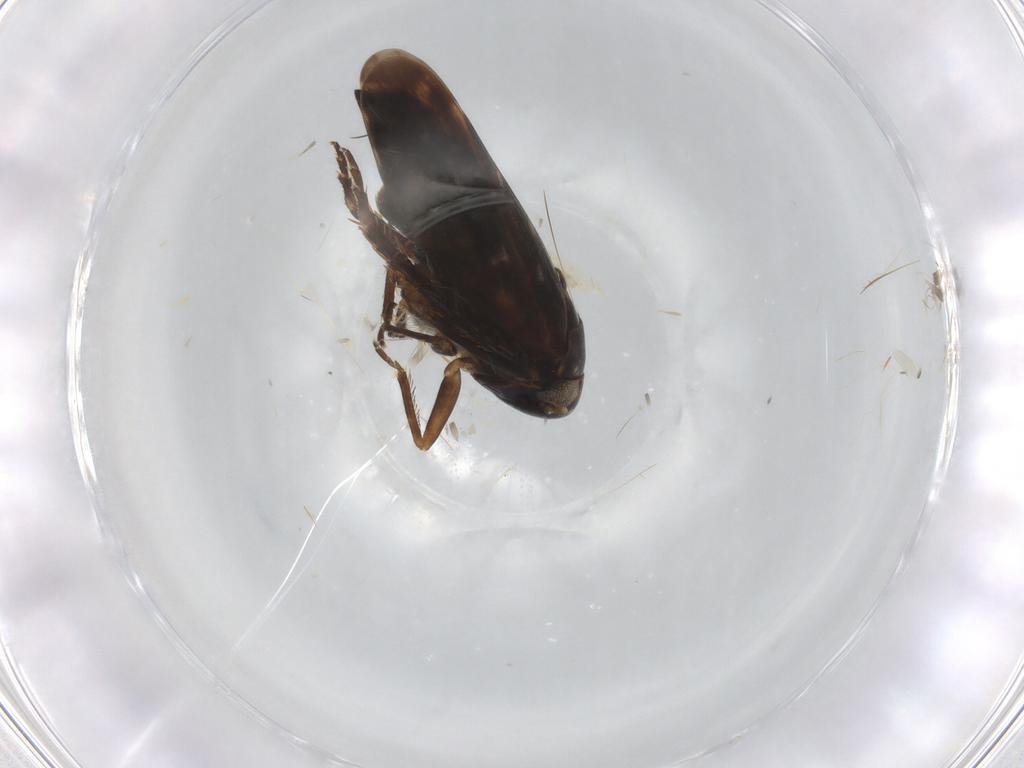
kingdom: Animalia
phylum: Arthropoda
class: Insecta
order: Hemiptera
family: Cicadellidae
